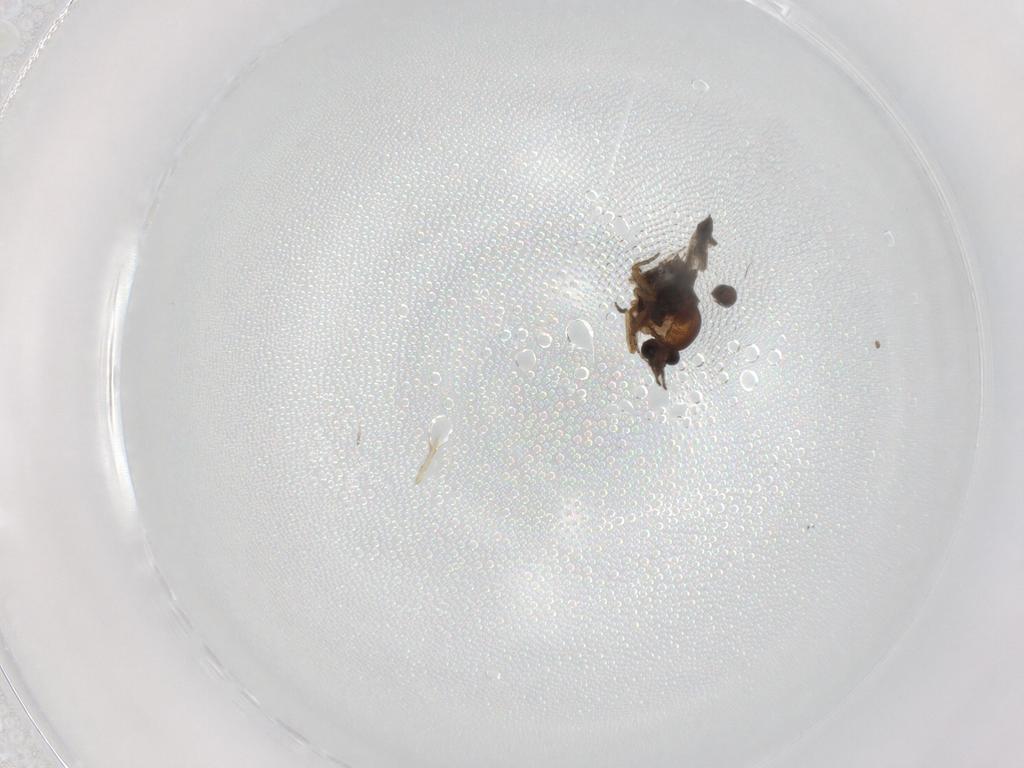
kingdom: Animalia
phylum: Arthropoda
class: Insecta
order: Diptera
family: Ceratopogonidae
